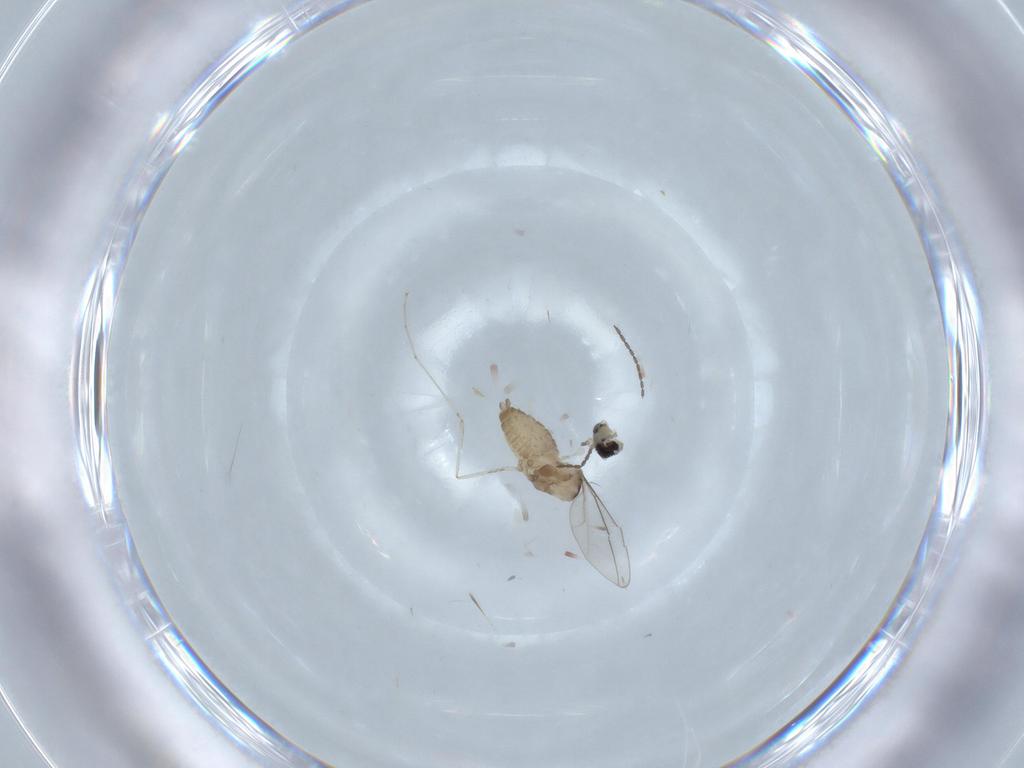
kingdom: Animalia
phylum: Arthropoda
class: Insecta
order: Diptera
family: Cecidomyiidae
